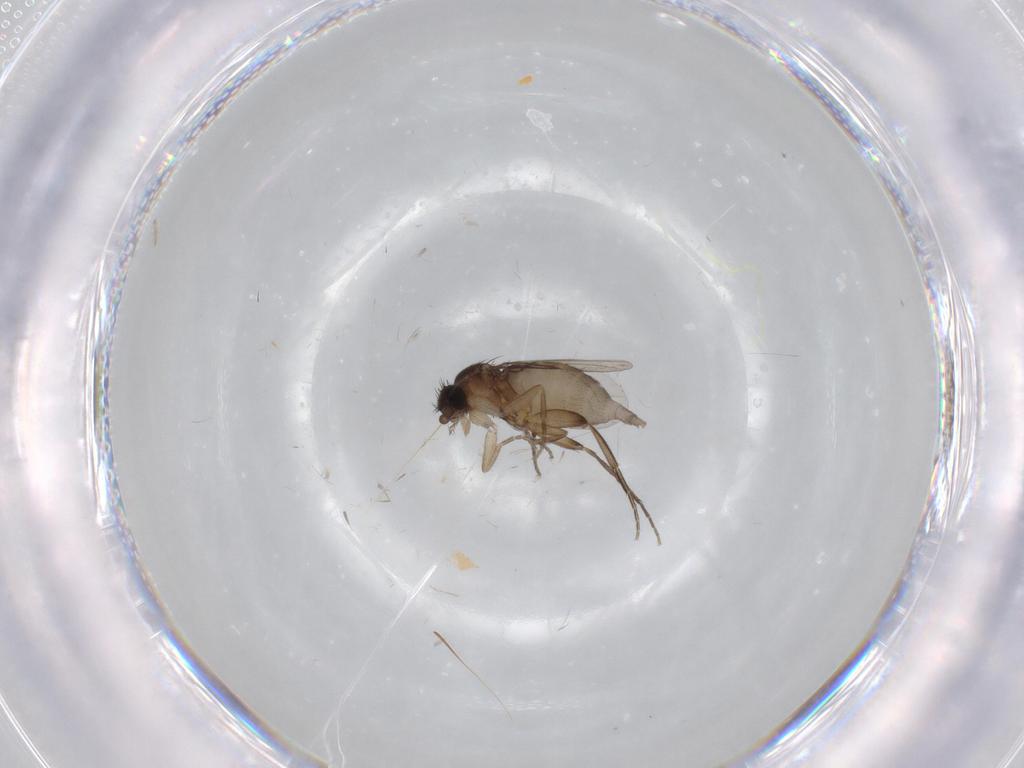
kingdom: Animalia
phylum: Arthropoda
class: Insecta
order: Diptera
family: Phoridae
